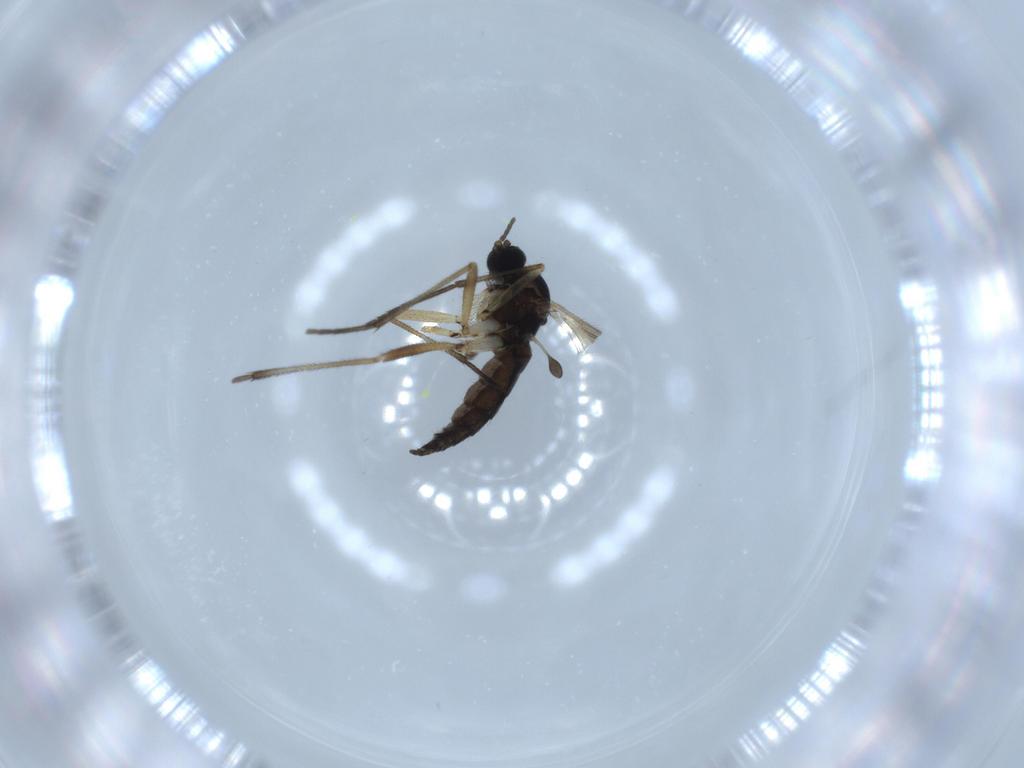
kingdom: Animalia
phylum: Arthropoda
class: Insecta
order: Diptera
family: Sciaridae
